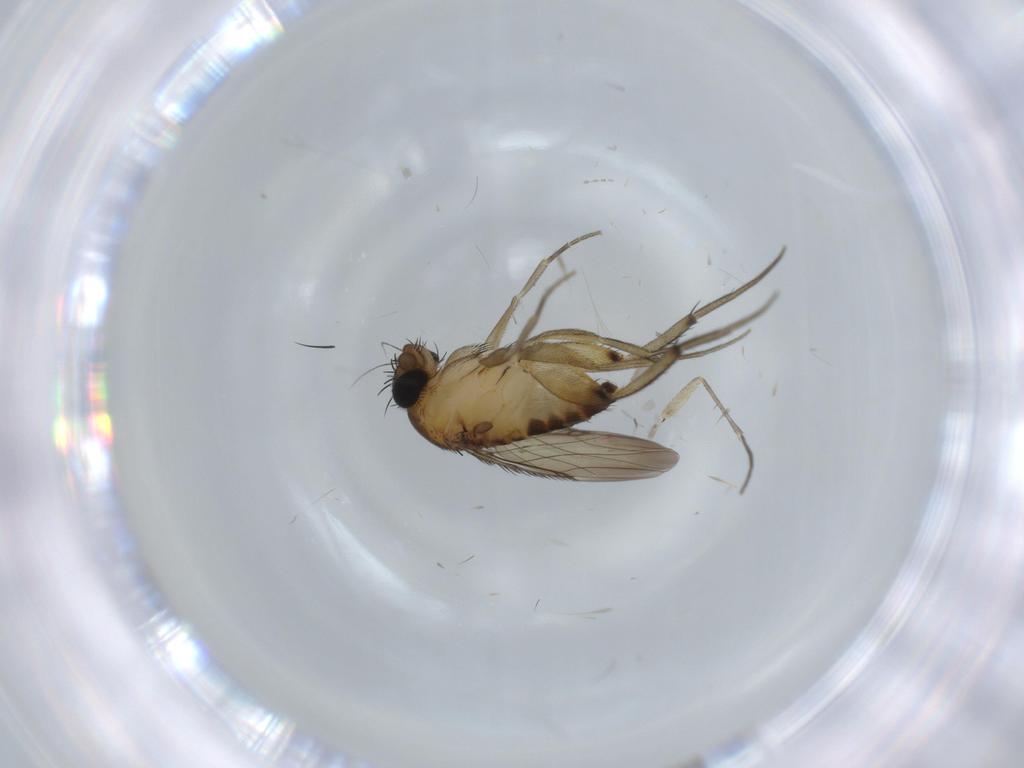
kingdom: Animalia
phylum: Arthropoda
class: Insecta
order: Diptera
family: Phoridae
